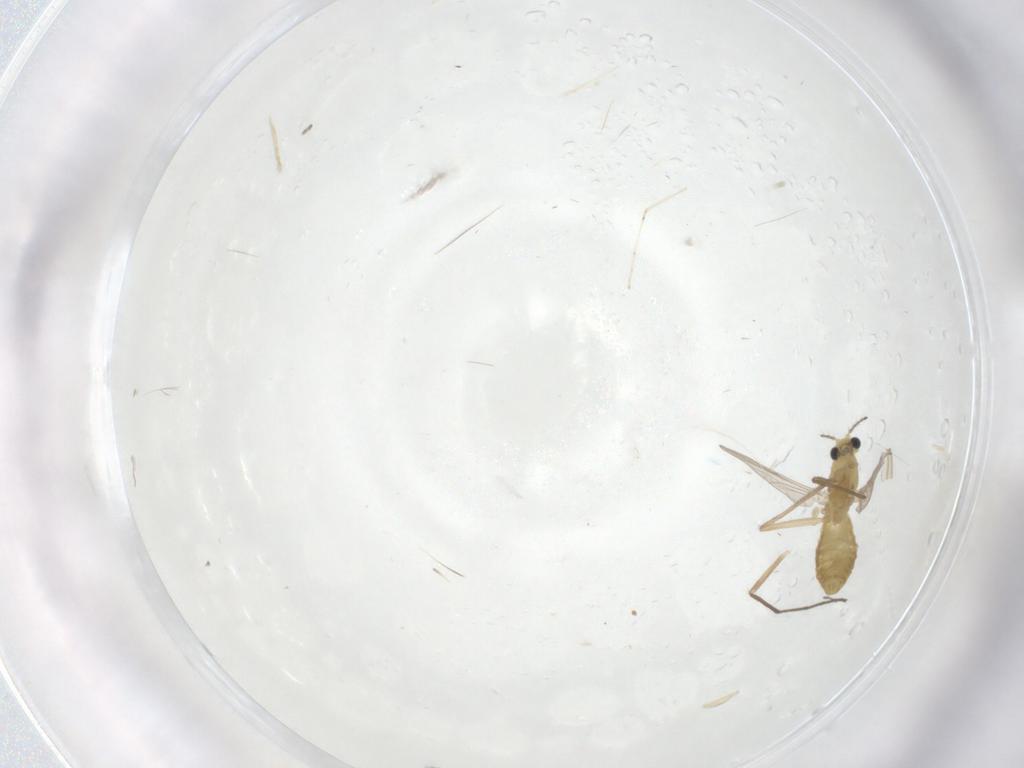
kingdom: Animalia
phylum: Arthropoda
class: Insecta
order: Diptera
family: Chironomidae
